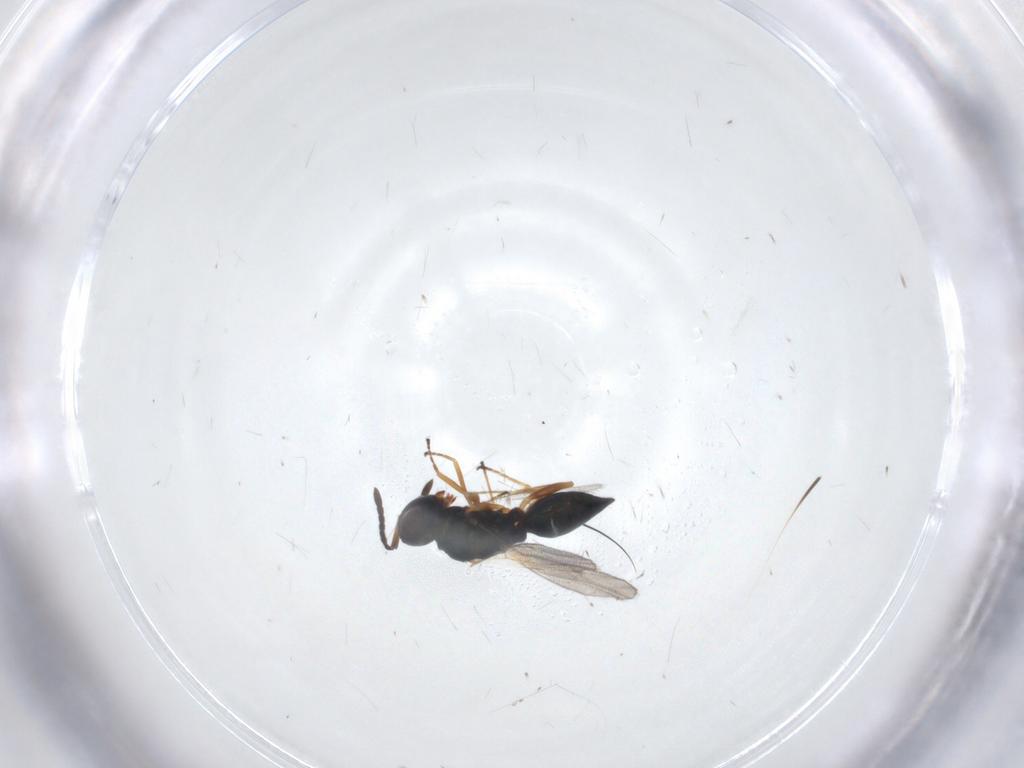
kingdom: Animalia
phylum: Arthropoda
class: Insecta
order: Hymenoptera
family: Pteromalidae
